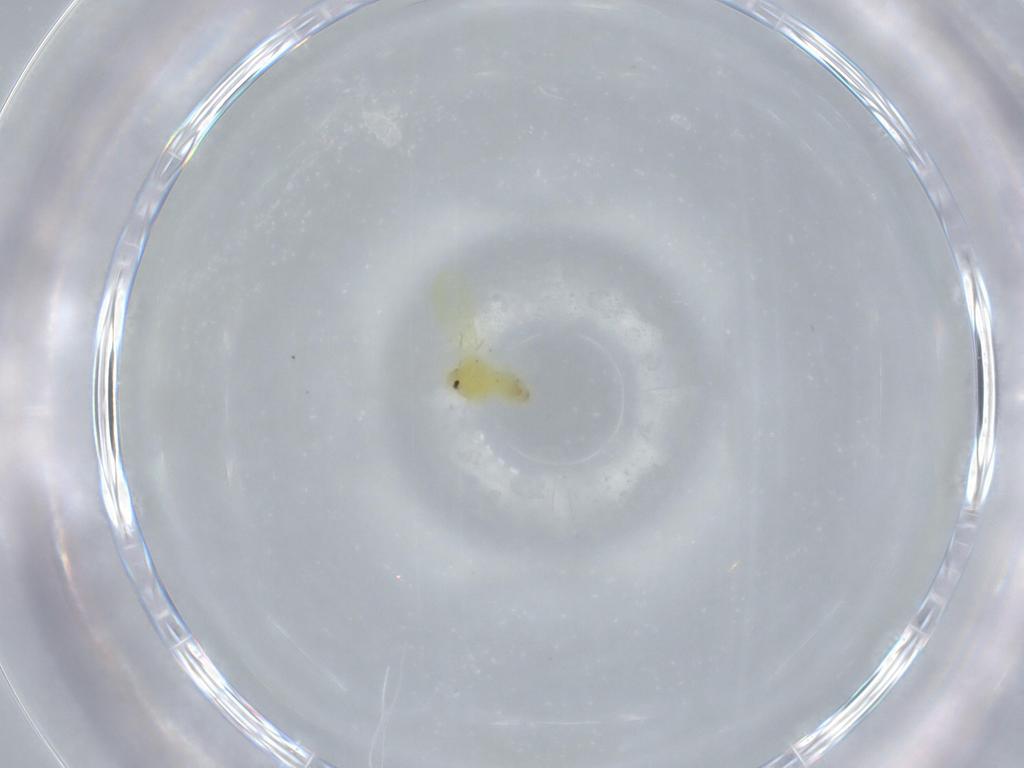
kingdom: Animalia
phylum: Arthropoda
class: Insecta
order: Hemiptera
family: Aleyrodidae
